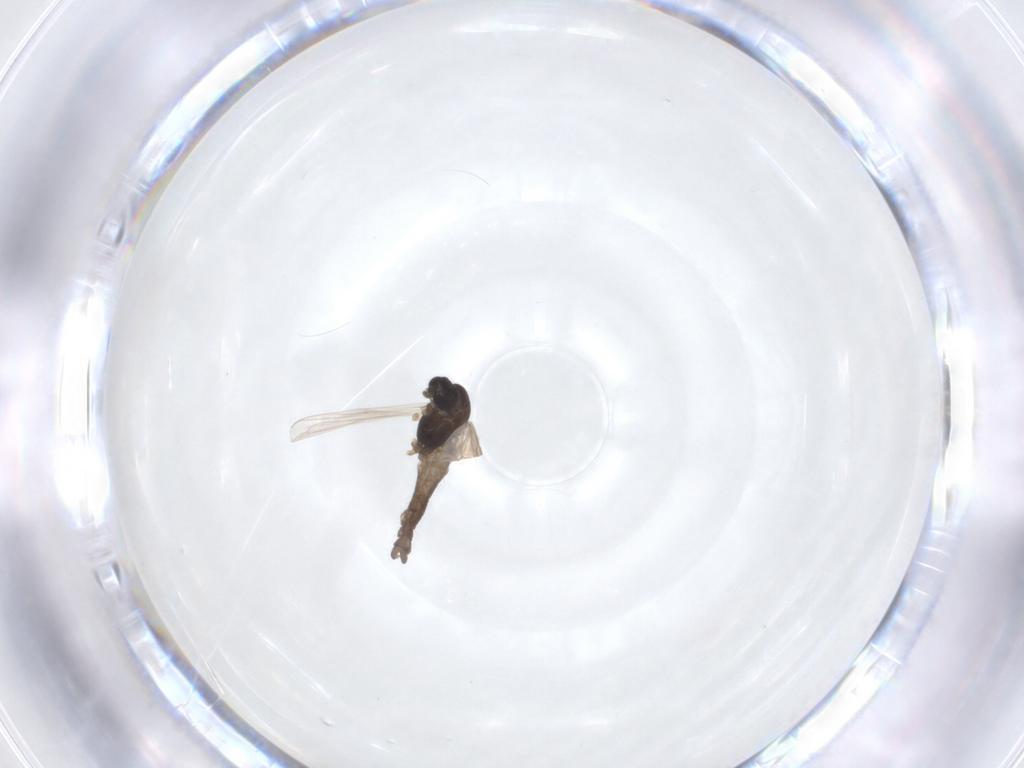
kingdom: Animalia
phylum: Arthropoda
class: Insecta
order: Diptera
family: Chironomidae
